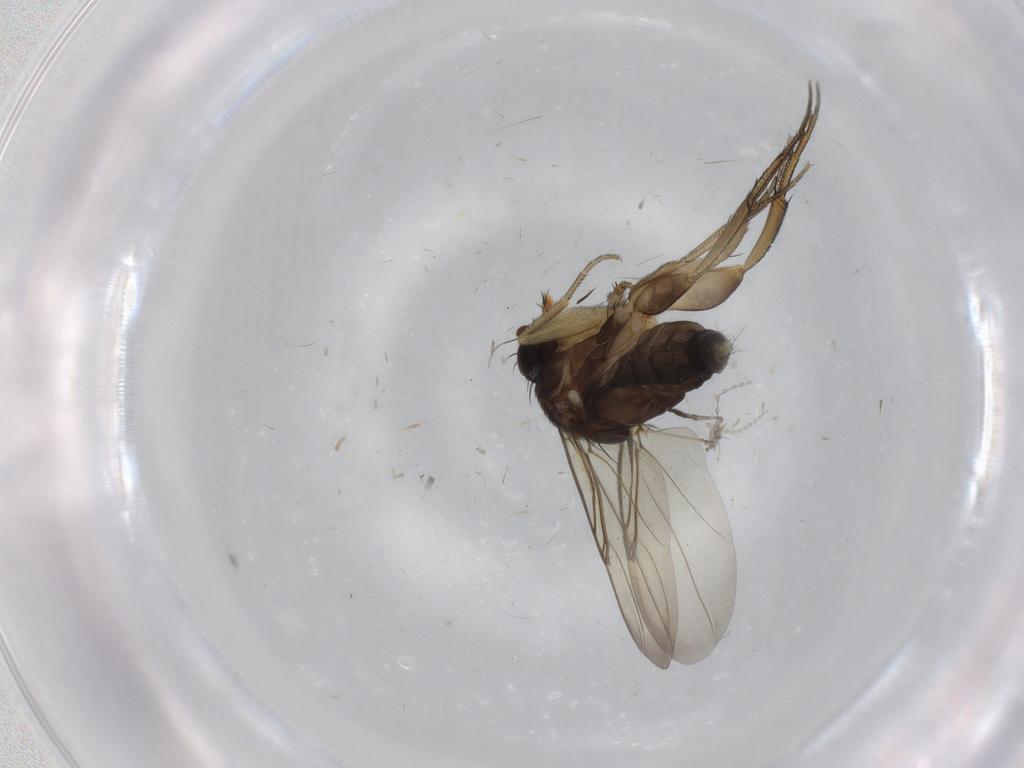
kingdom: Animalia
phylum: Arthropoda
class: Insecta
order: Diptera
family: Phoridae
